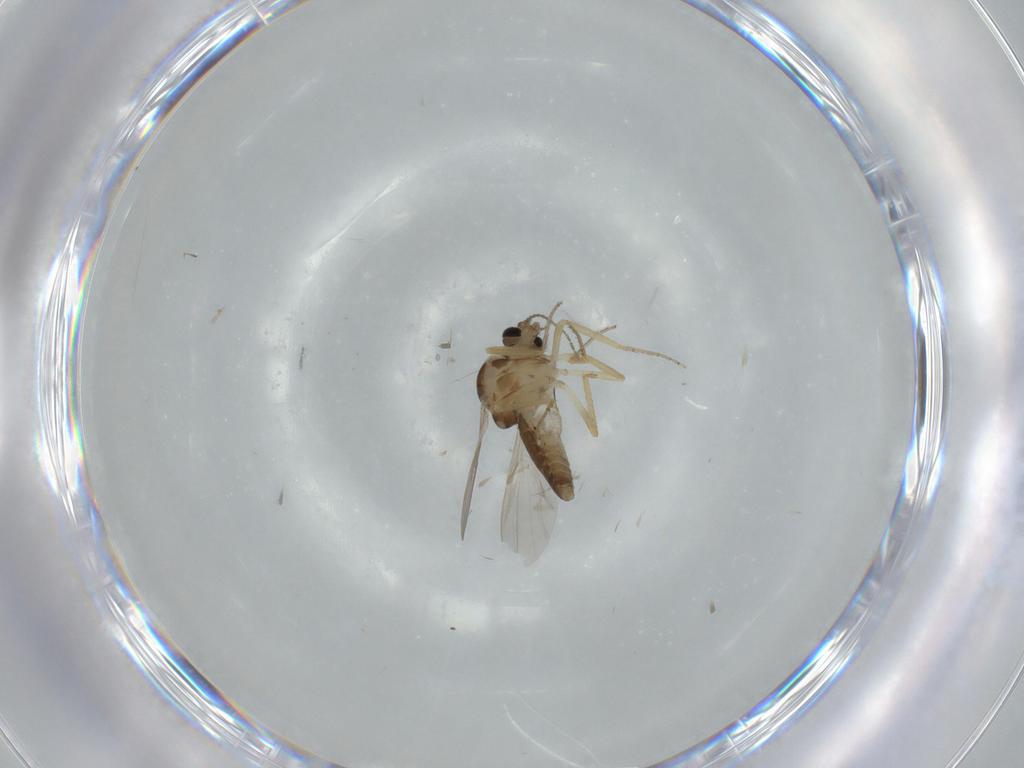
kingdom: Animalia
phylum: Arthropoda
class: Insecta
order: Diptera
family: Ceratopogonidae
